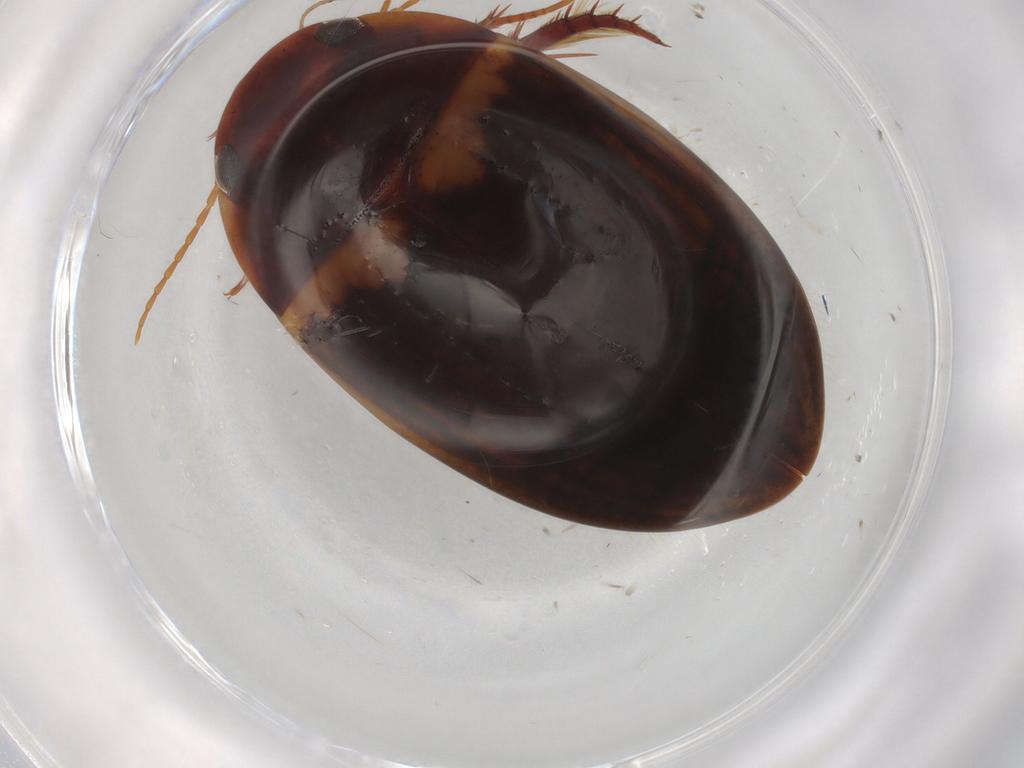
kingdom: Animalia
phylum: Arthropoda
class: Insecta
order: Coleoptera
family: Dytiscidae
